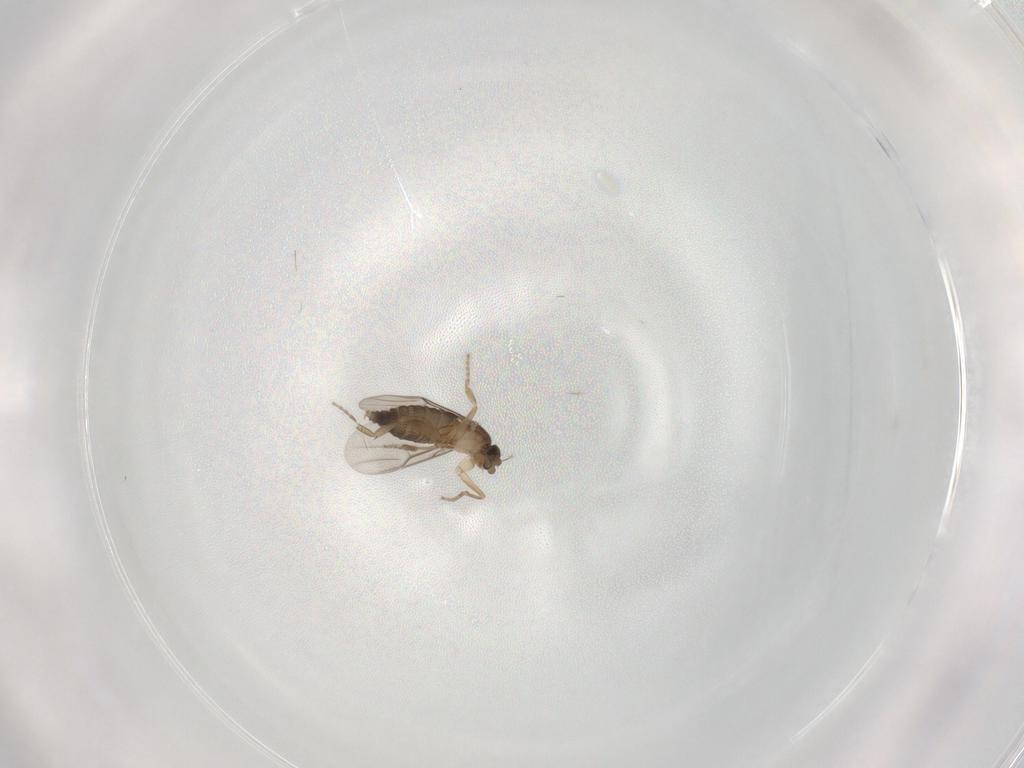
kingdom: Animalia
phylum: Arthropoda
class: Insecta
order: Diptera
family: Phoridae
